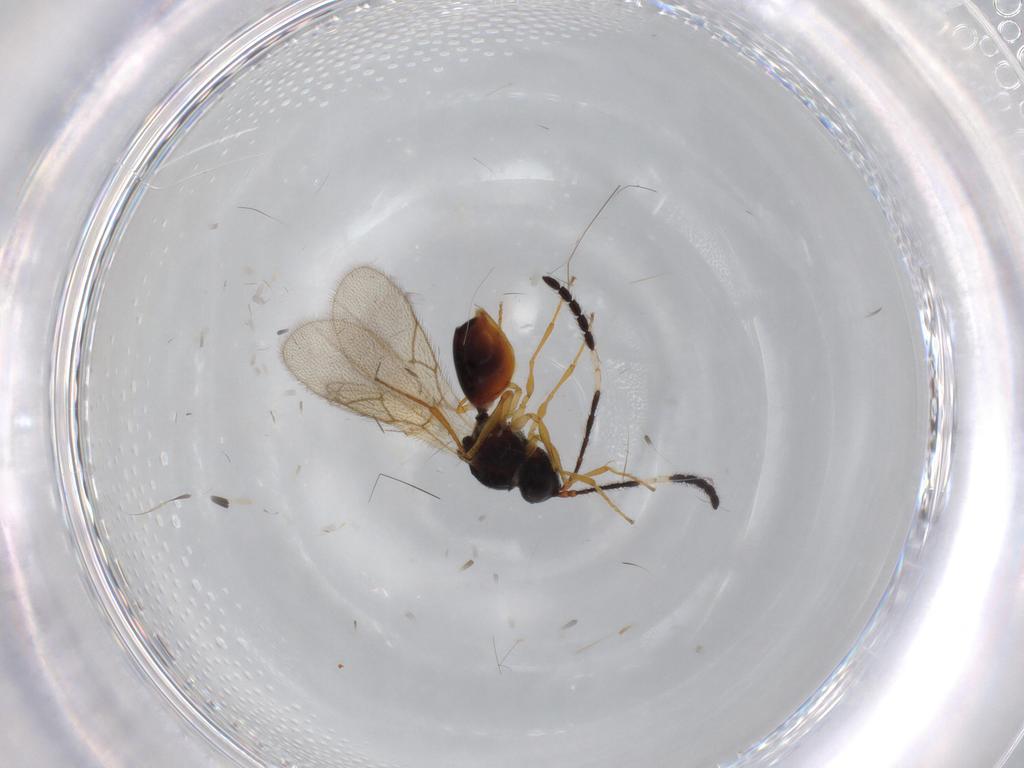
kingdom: Animalia
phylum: Arthropoda
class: Insecta
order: Hymenoptera
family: Figitidae
